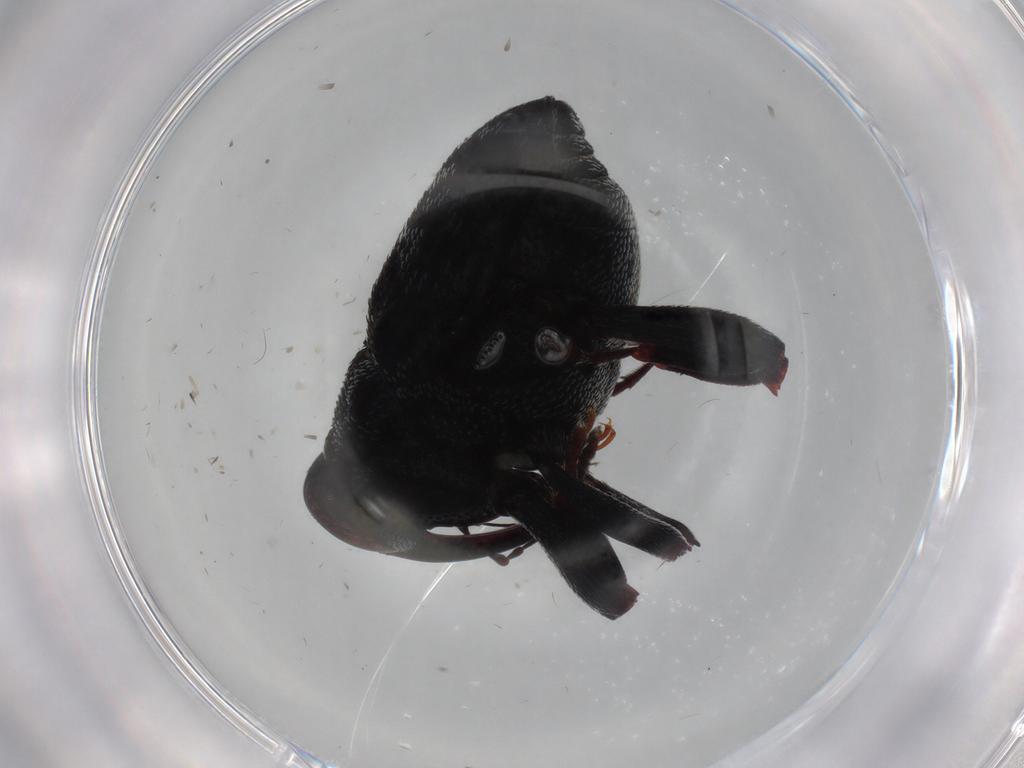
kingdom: Animalia
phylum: Arthropoda
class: Insecta
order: Coleoptera
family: Curculionidae
